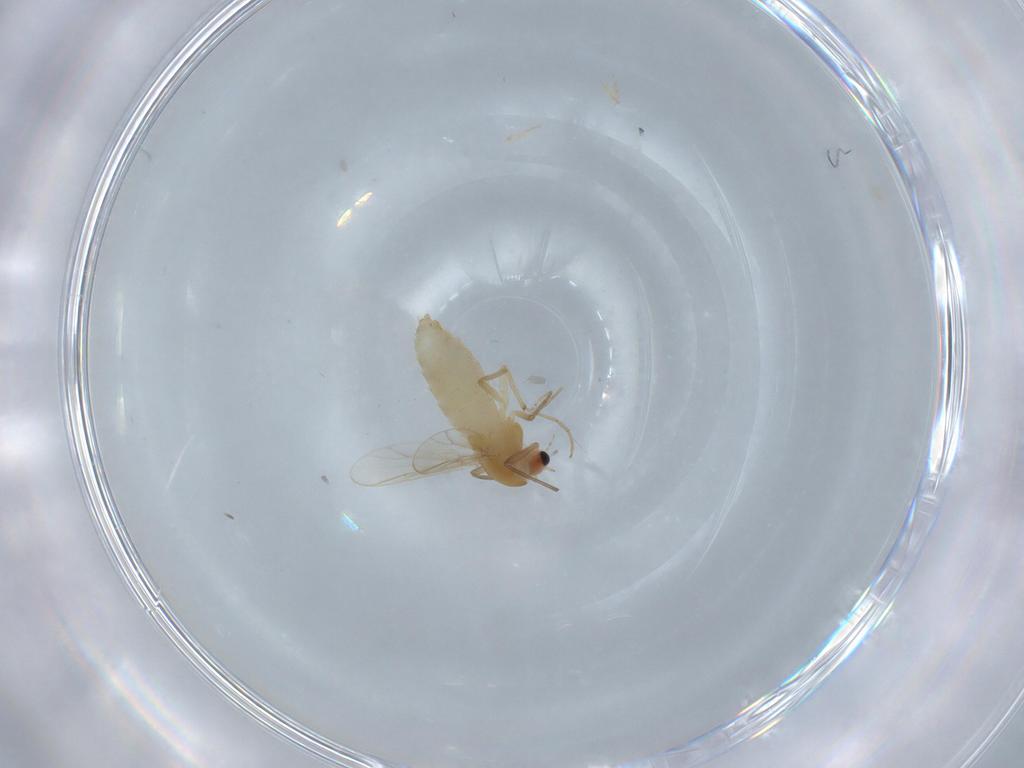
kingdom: Animalia
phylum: Arthropoda
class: Insecta
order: Diptera
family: Chironomidae
